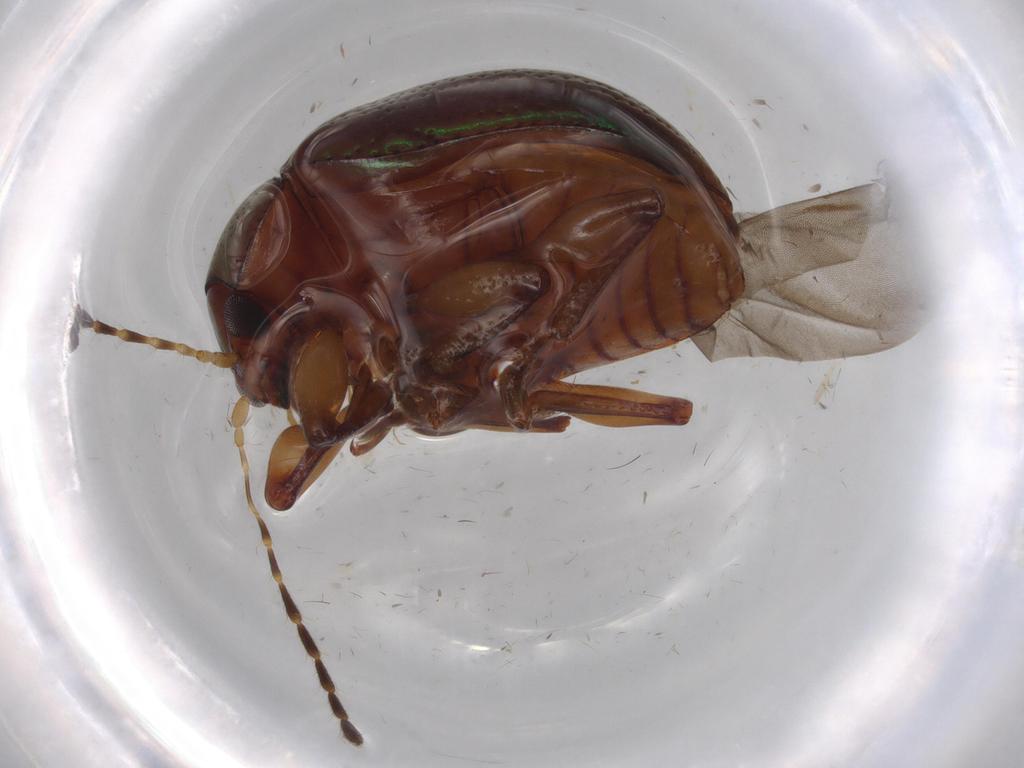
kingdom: Animalia
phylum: Arthropoda
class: Insecta
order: Coleoptera
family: Chrysomelidae
